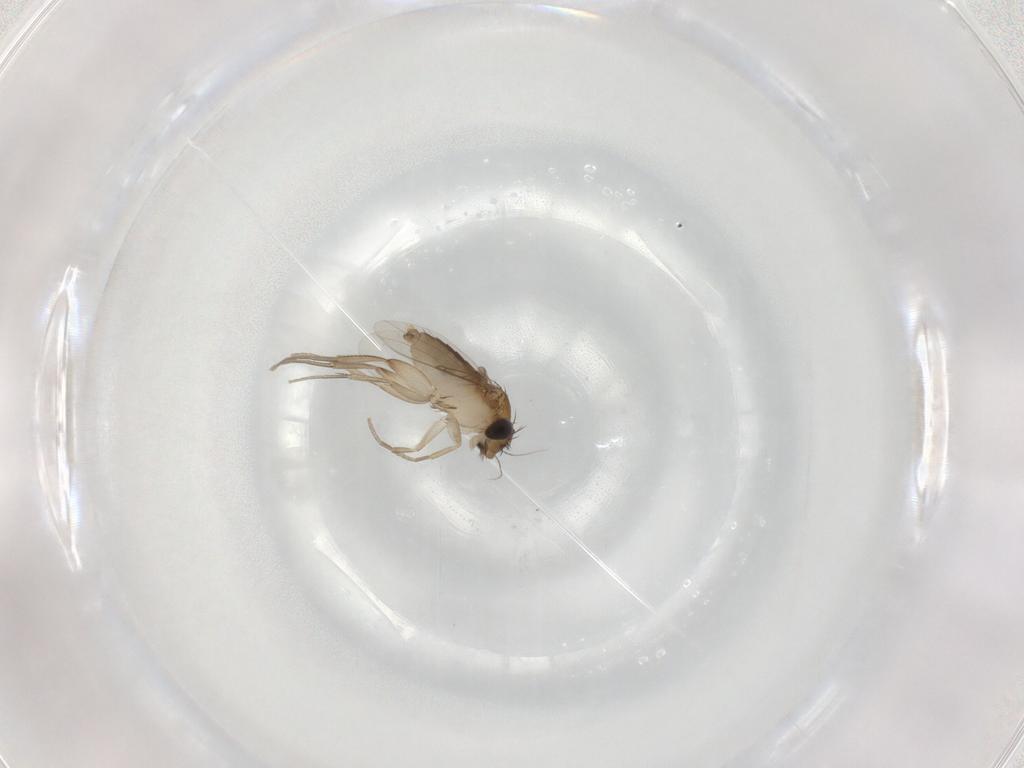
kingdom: Animalia
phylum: Arthropoda
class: Insecta
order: Diptera
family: Phoridae
